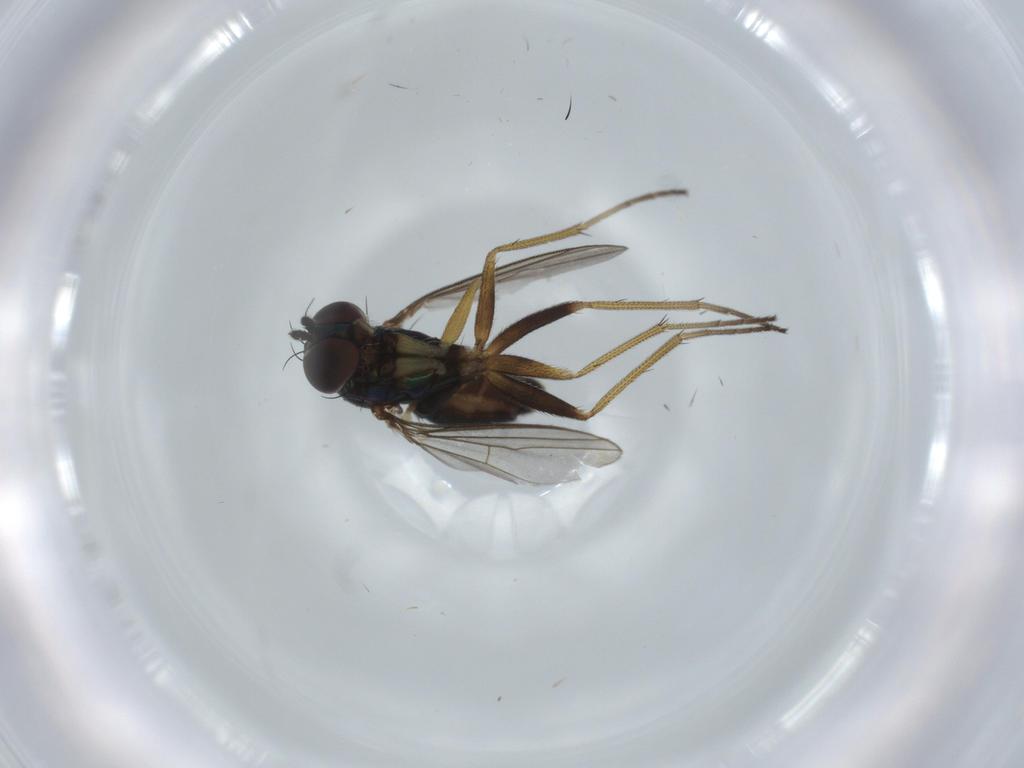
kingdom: Animalia
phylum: Arthropoda
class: Insecta
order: Diptera
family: Dolichopodidae
